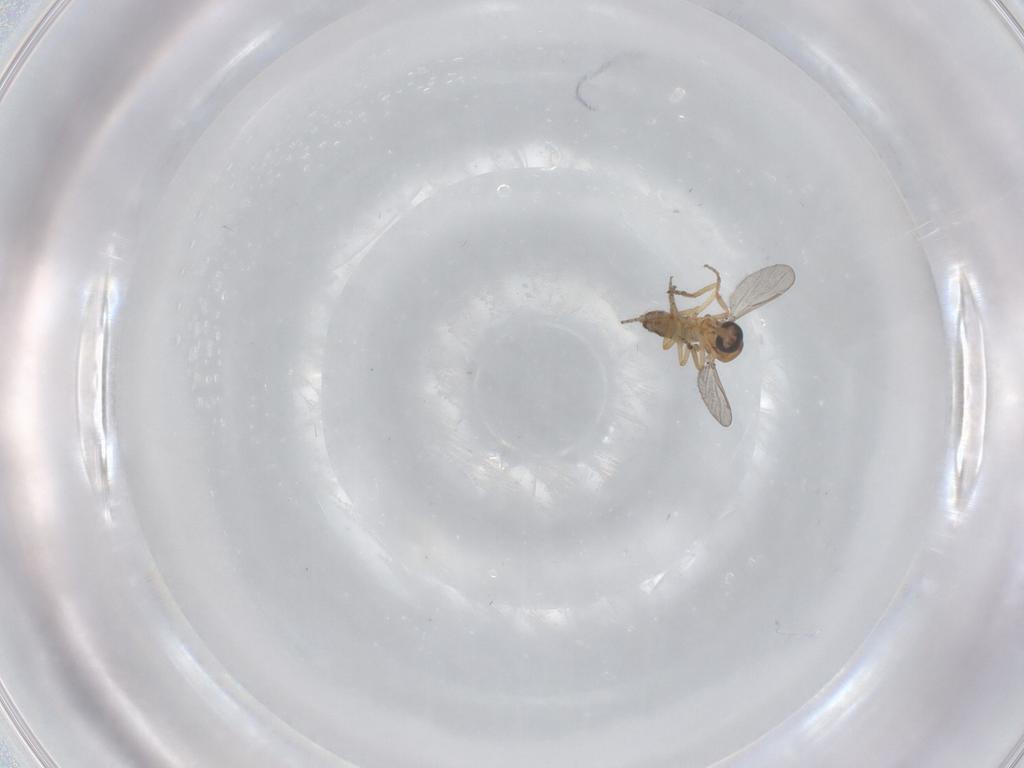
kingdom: Animalia
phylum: Arthropoda
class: Insecta
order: Diptera
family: Ceratopogonidae
